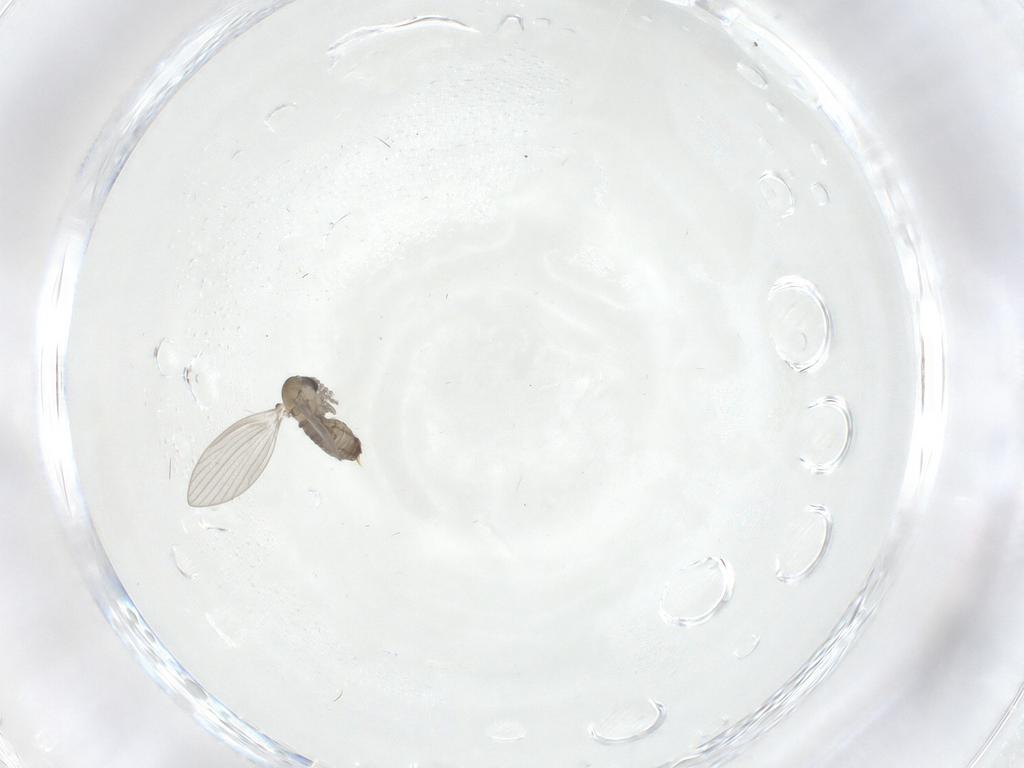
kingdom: Animalia
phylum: Arthropoda
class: Insecta
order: Diptera
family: Psychodidae
